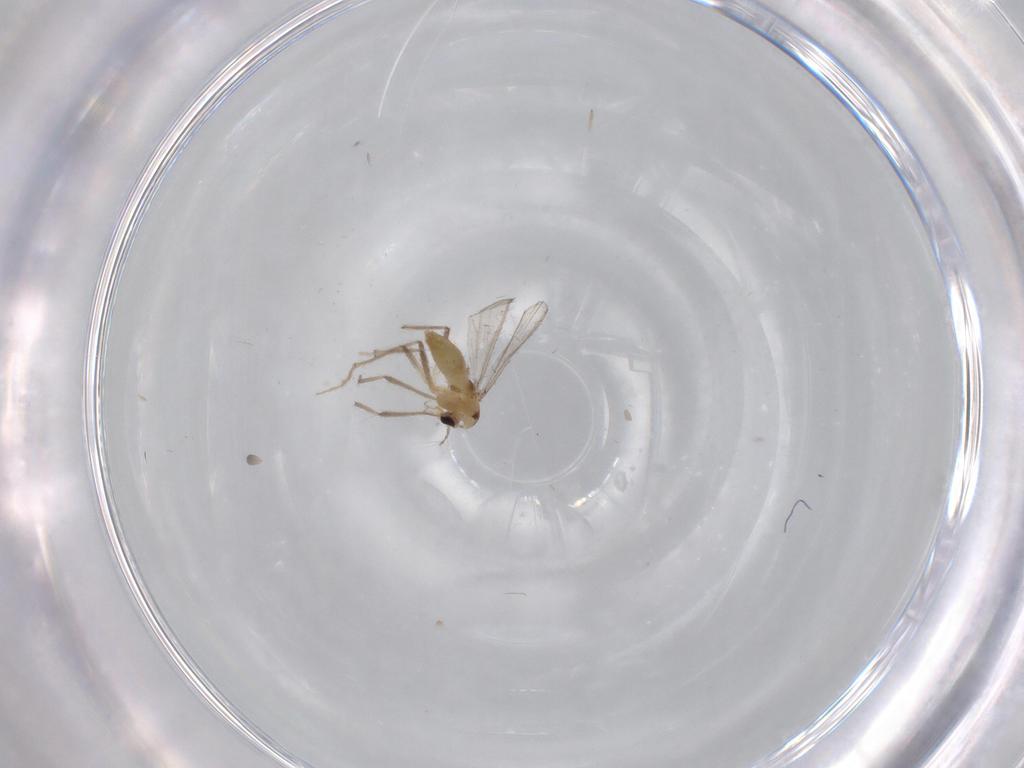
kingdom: Animalia
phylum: Arthropoda
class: Insecta
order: Diptera
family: Chironomidae
